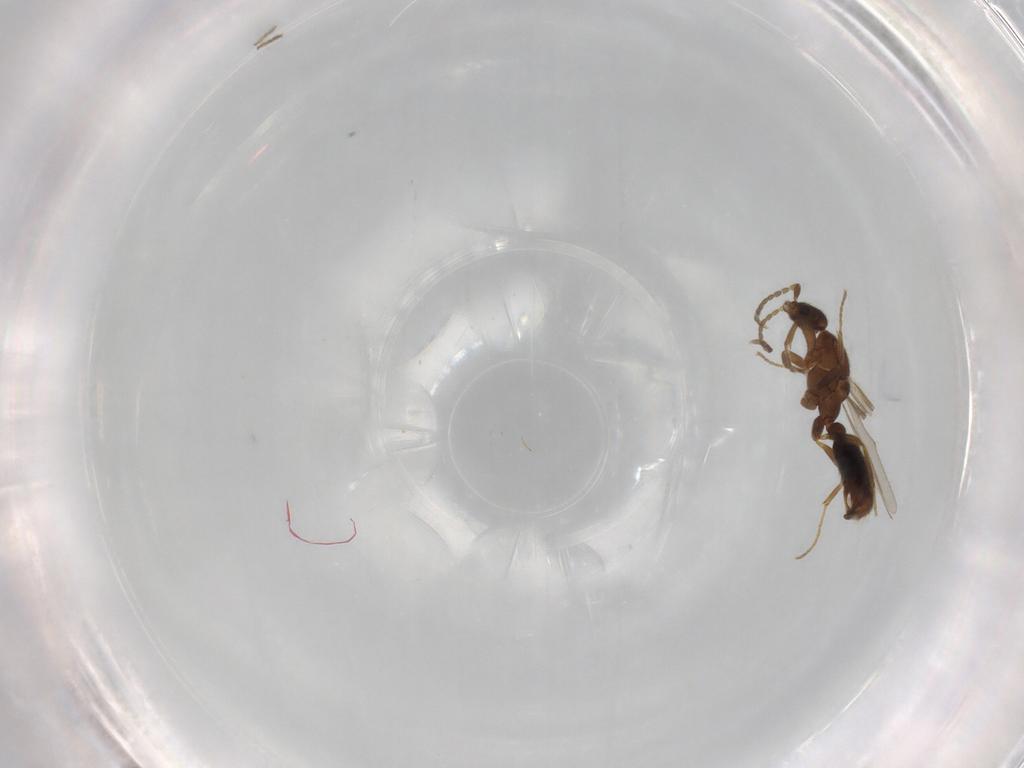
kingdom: Animalia
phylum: Arthropoda
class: Insecta
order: Hymenoptera
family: Formicidae
